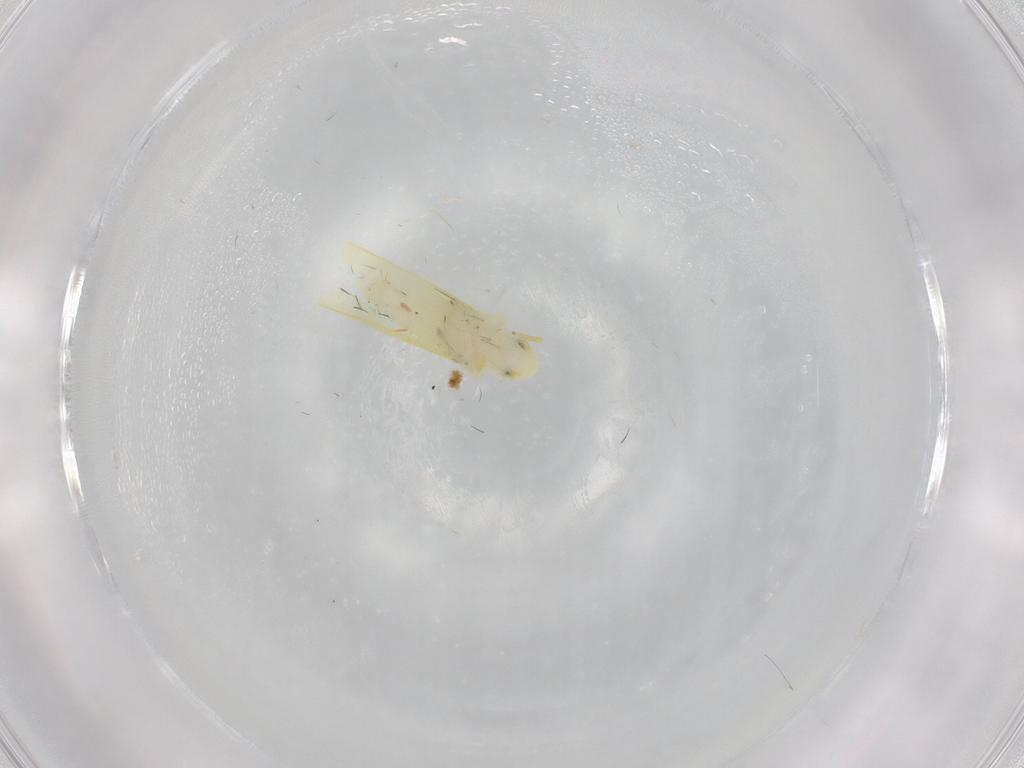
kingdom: Animalia
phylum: Arthropoda
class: Insecta
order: Hemiptera
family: Cicadellidae
